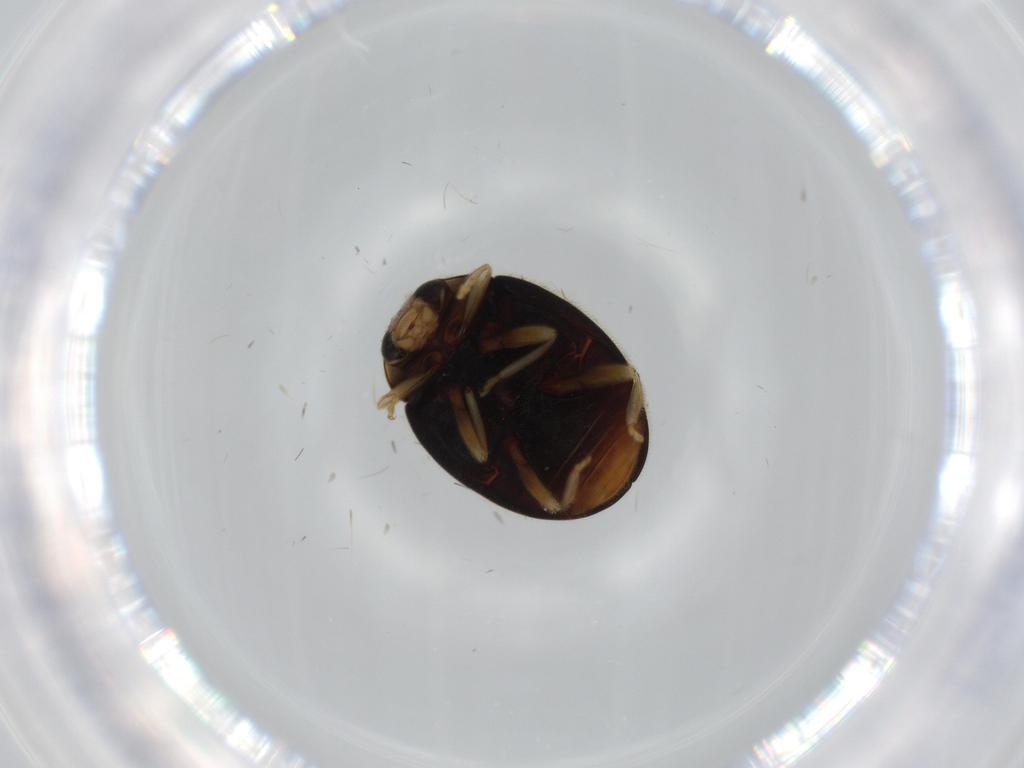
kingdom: Animalia
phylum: Arthropoda
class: Insecta
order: Coleoptera
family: Coccinellidae
